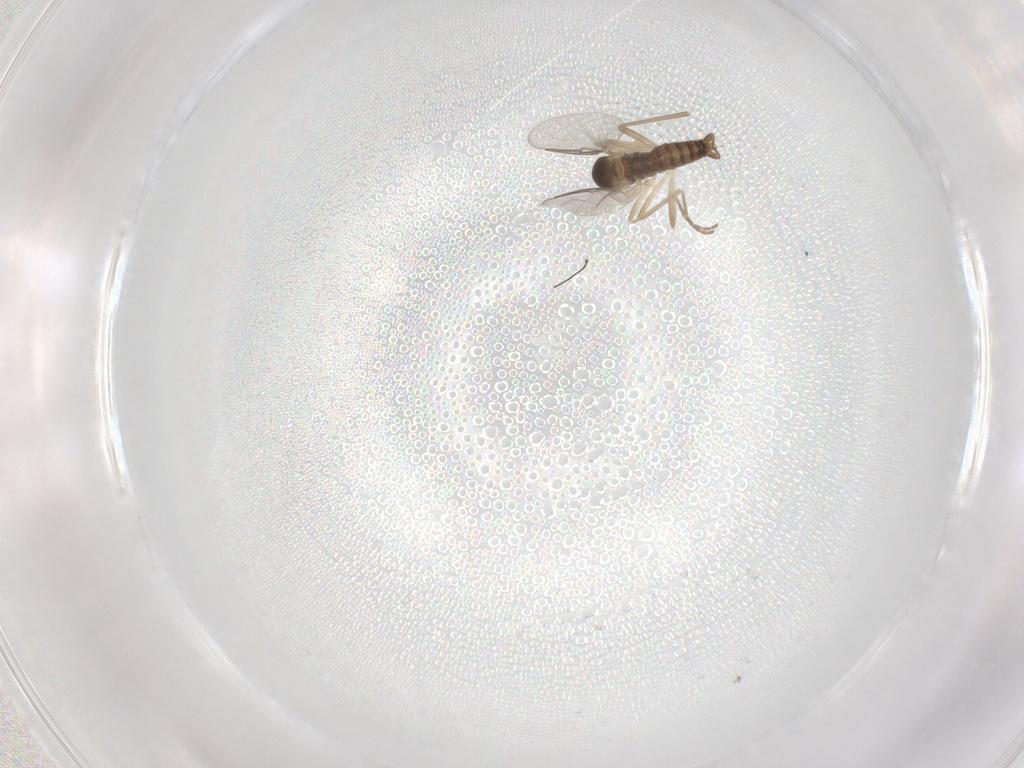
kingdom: Animalia
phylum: Arthropoda
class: Insecta
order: Diptera
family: Cecidomyiidae
